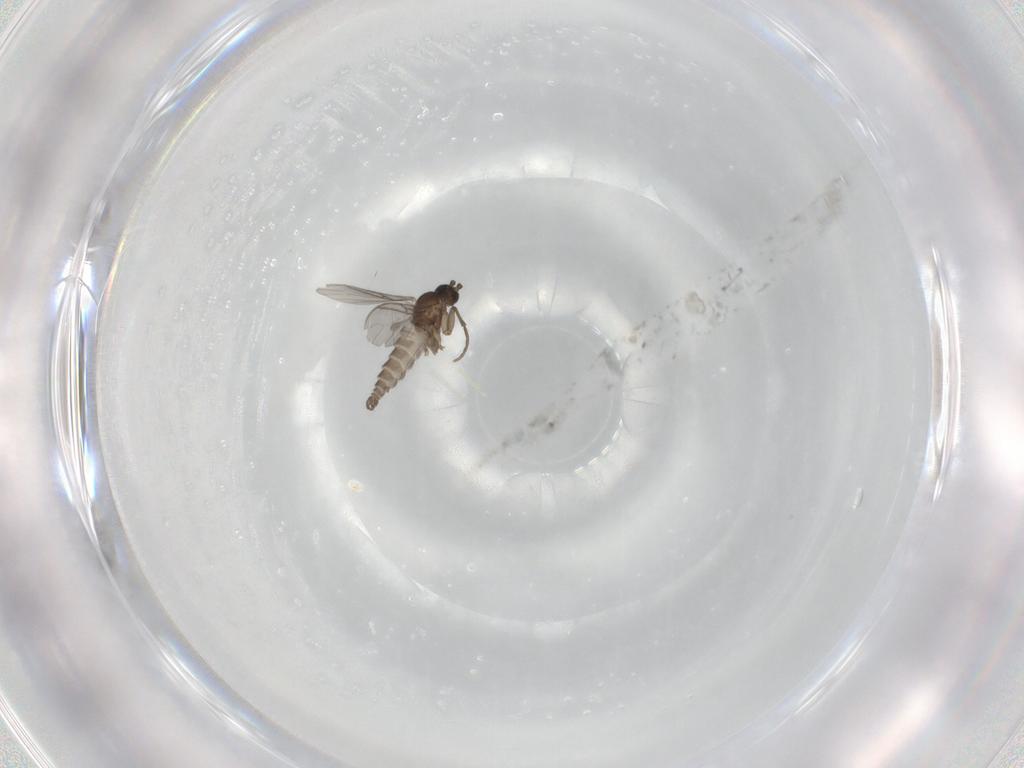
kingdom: Animalia
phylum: Arthropoda
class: Insecta
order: Diptera
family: Sciaridae
